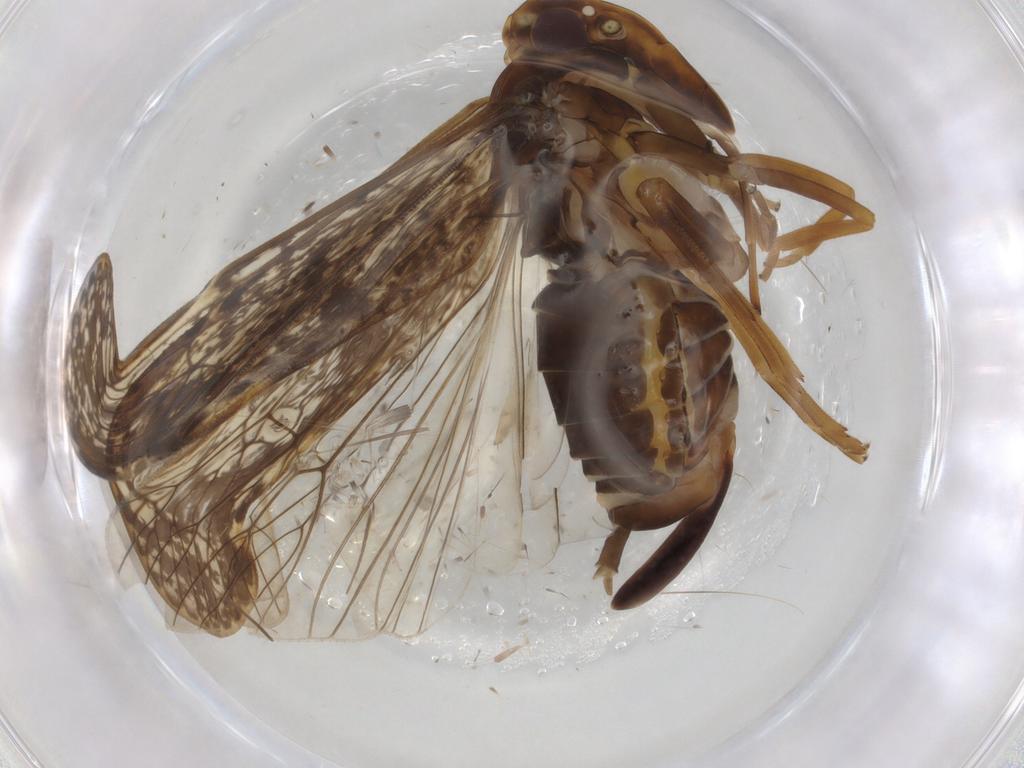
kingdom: Animalia
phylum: Arthropoda
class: Insecta
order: Hemiptera
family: Cixiidae
